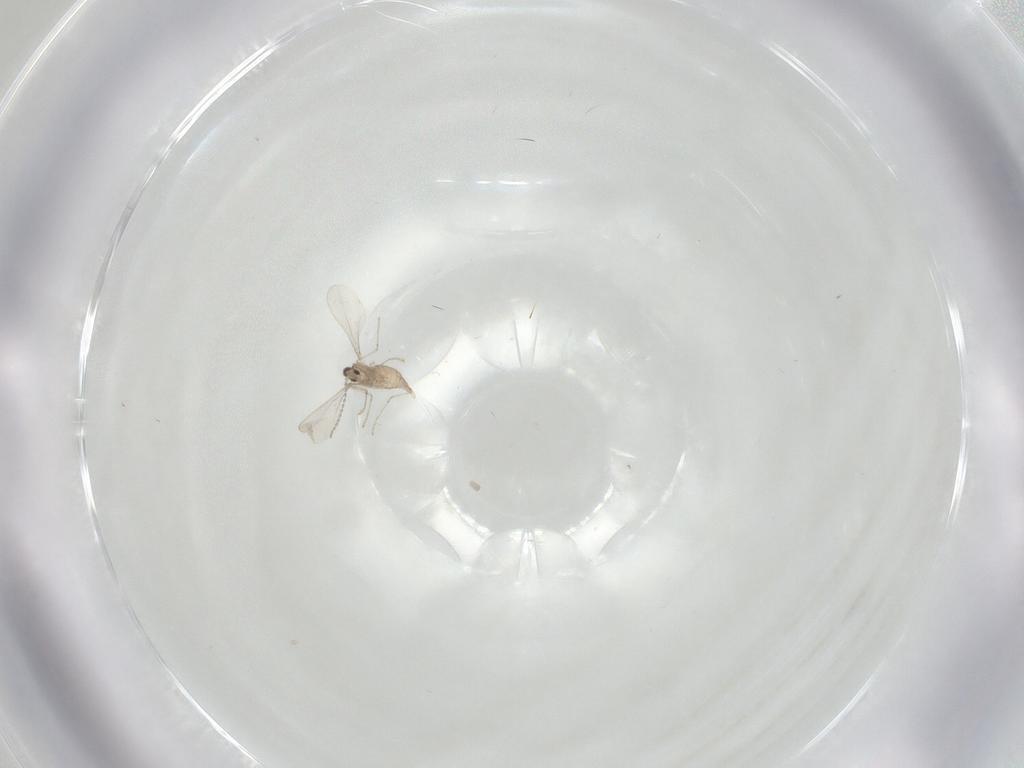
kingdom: Animalia
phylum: Arthropoda
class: Insecta
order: Diptera
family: Cecidomyiidae
